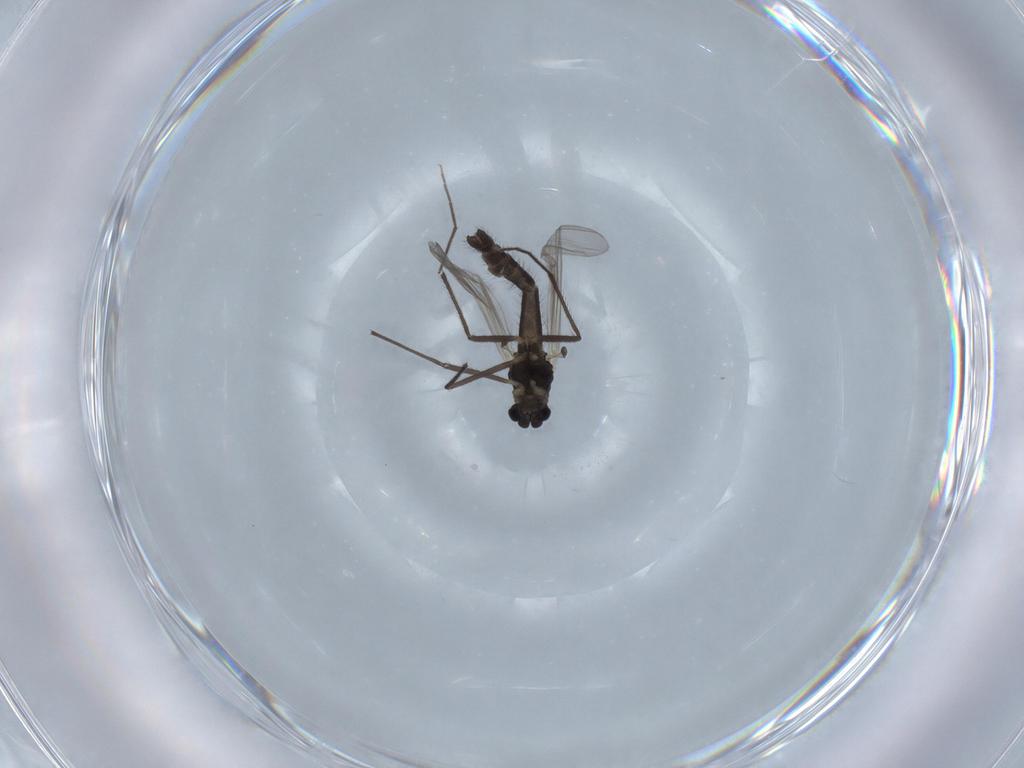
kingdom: Animalia
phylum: Arthropoda
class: Insecta
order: Diptera
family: Chironomidae
